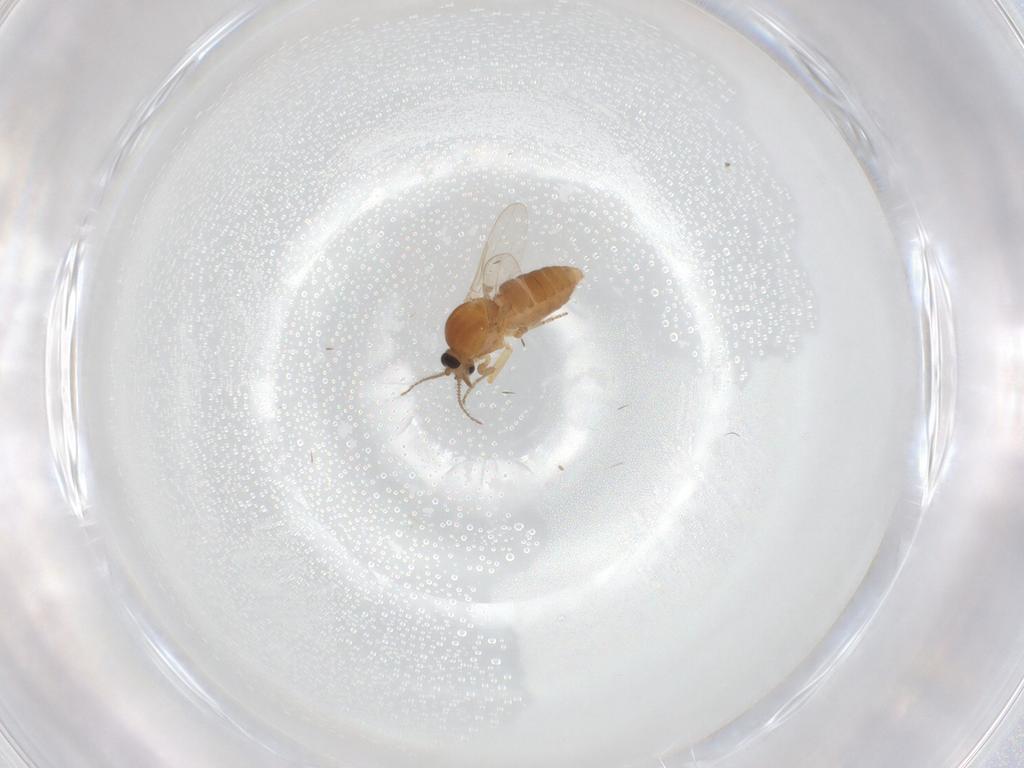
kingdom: Animalia
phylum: Arthropoda
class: Insecta
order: Diptera
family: Ceratopogonidae
